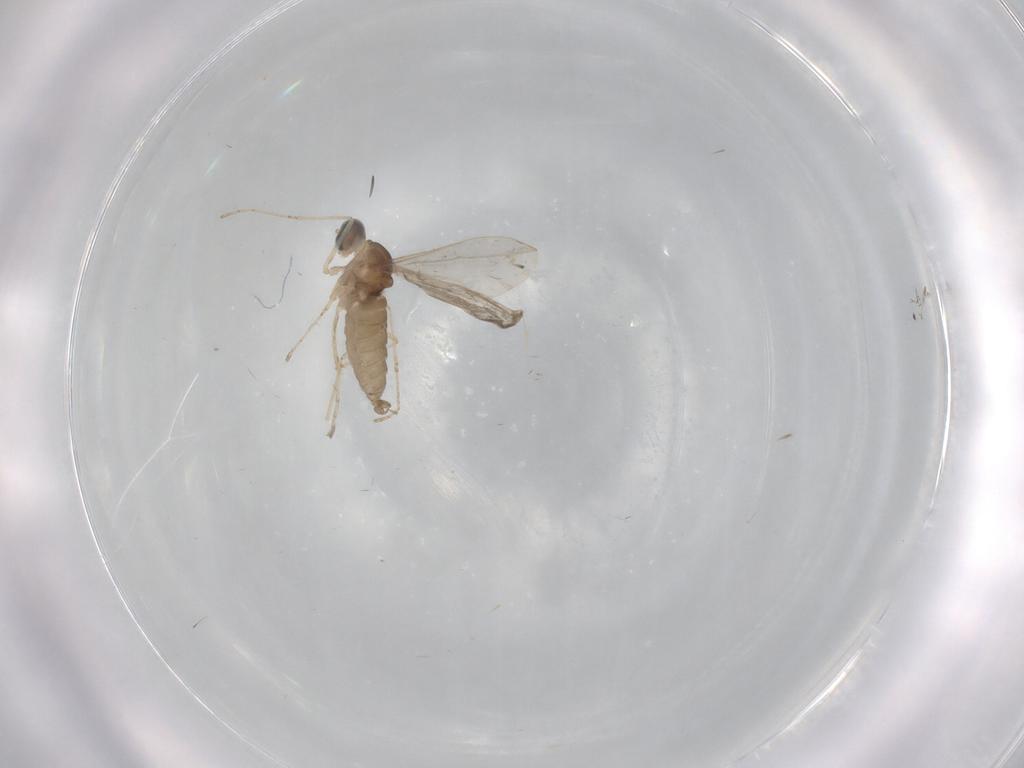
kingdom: Animalia
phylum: Arthropoda
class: Insecta
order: Diptera
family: Cecidomyiidae
